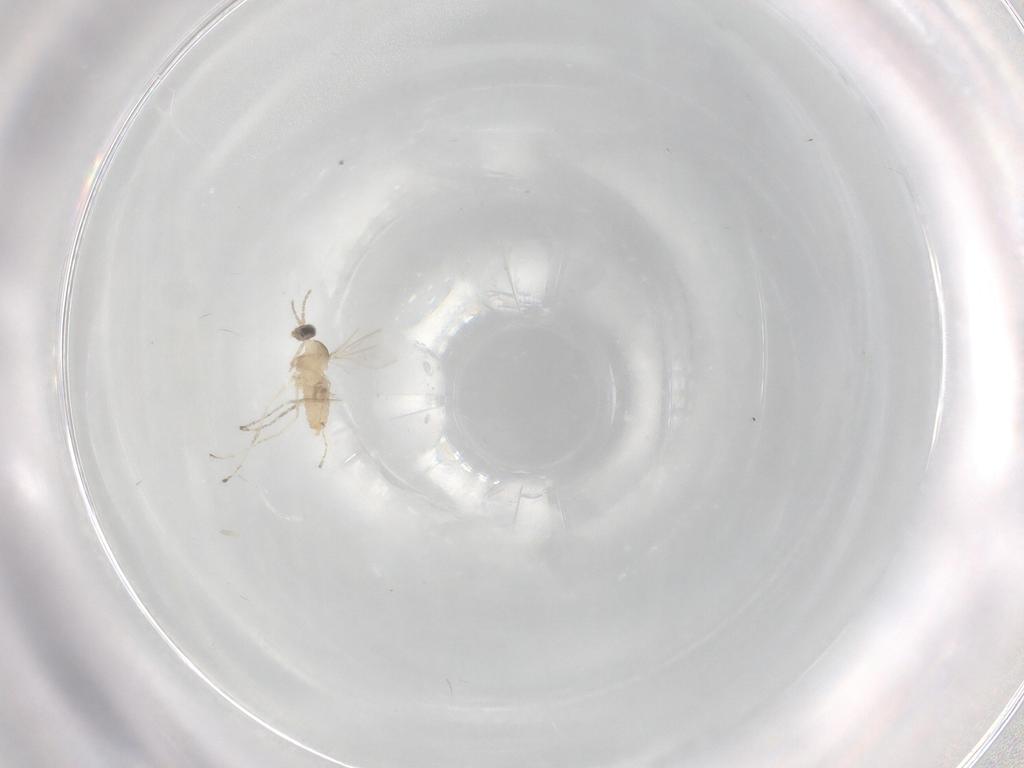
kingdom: Animalia
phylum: Arthropoda
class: Insecta
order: Diptera
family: Cecidomyiidae
